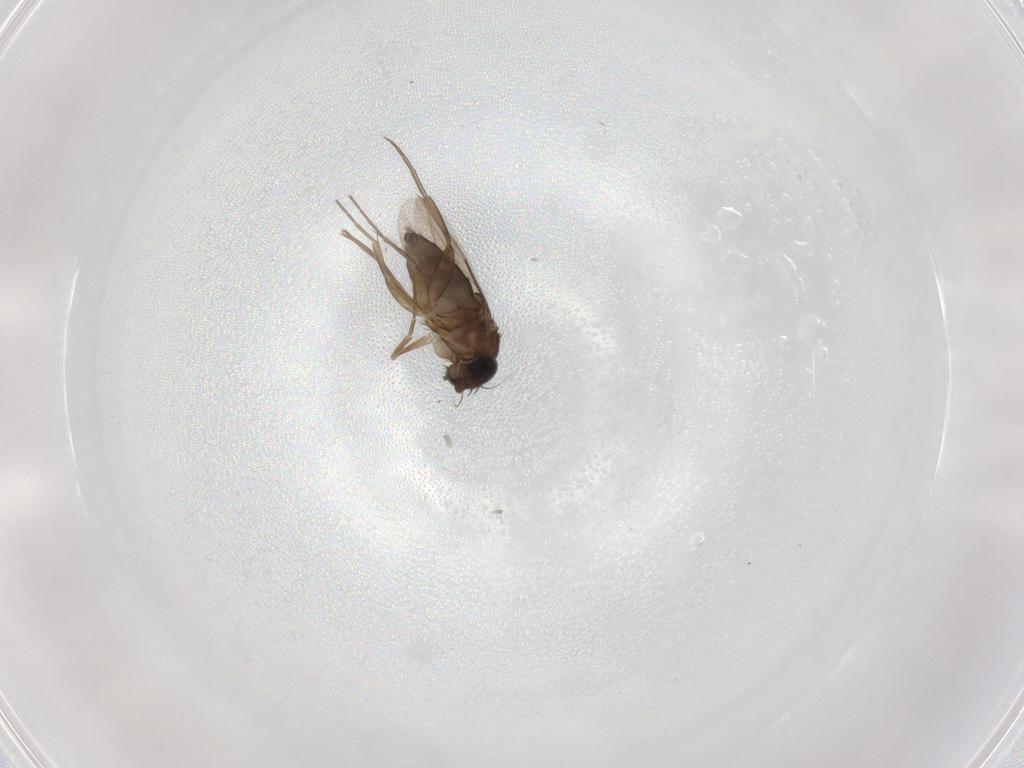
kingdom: Animalia
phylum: Arthropoda
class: Insecta
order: Diptera
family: Phoridae
